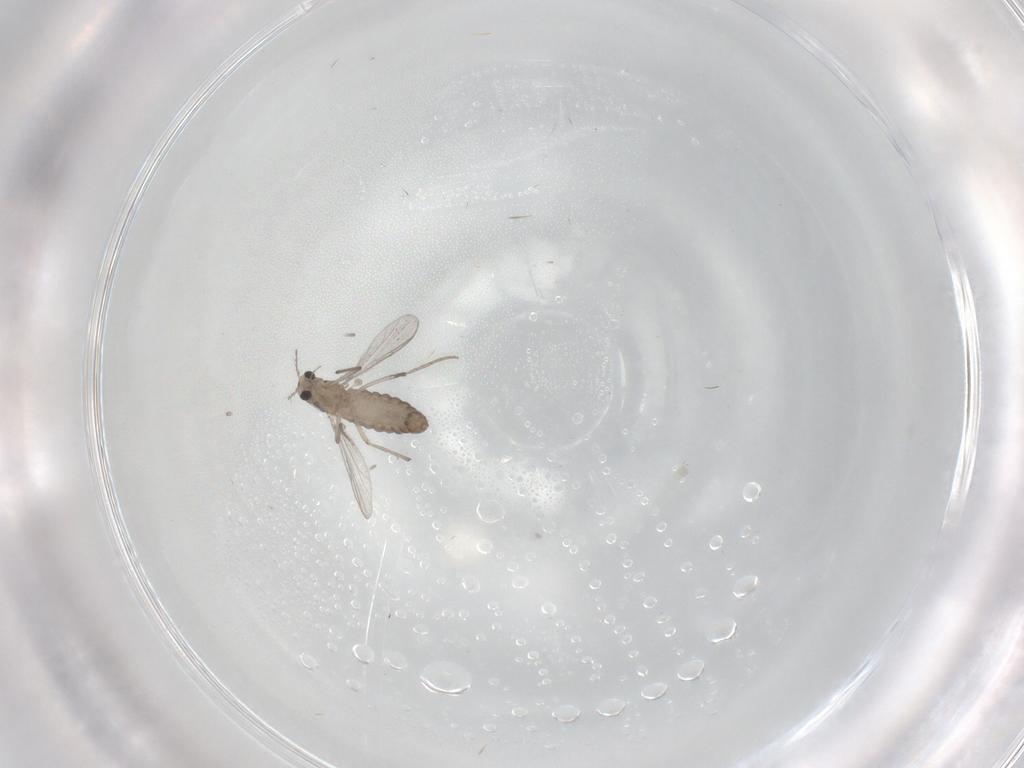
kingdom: Animalia
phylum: Arthropoda
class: Insecta
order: Diptera
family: Chironomidae
